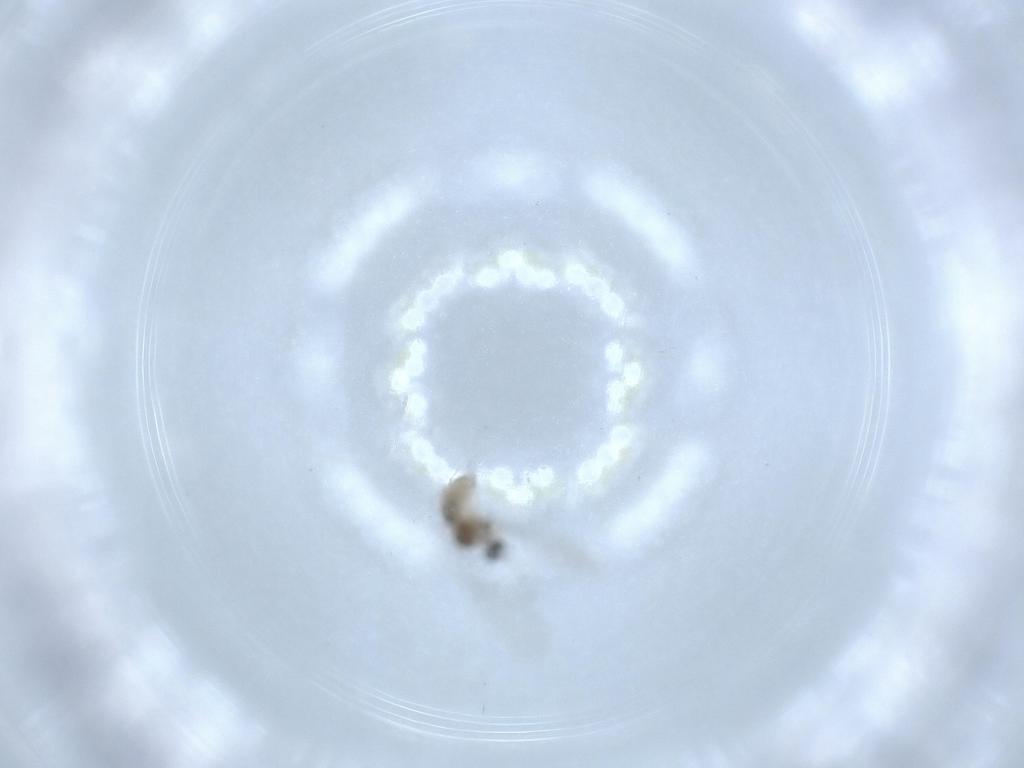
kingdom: Animalia
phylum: Arthropoda
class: Insecta
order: Diptera
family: Cecidomyiidae
